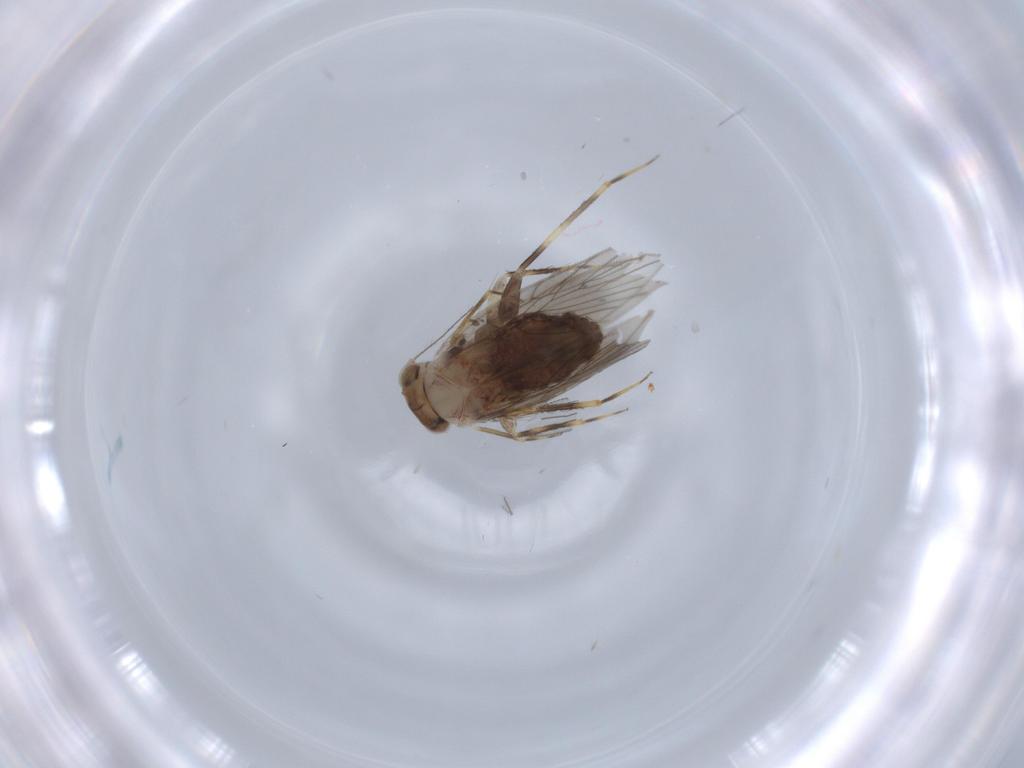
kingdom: Animalia
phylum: Arthropoda
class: Insecta
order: Psocodea
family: Lepidopsocidae
